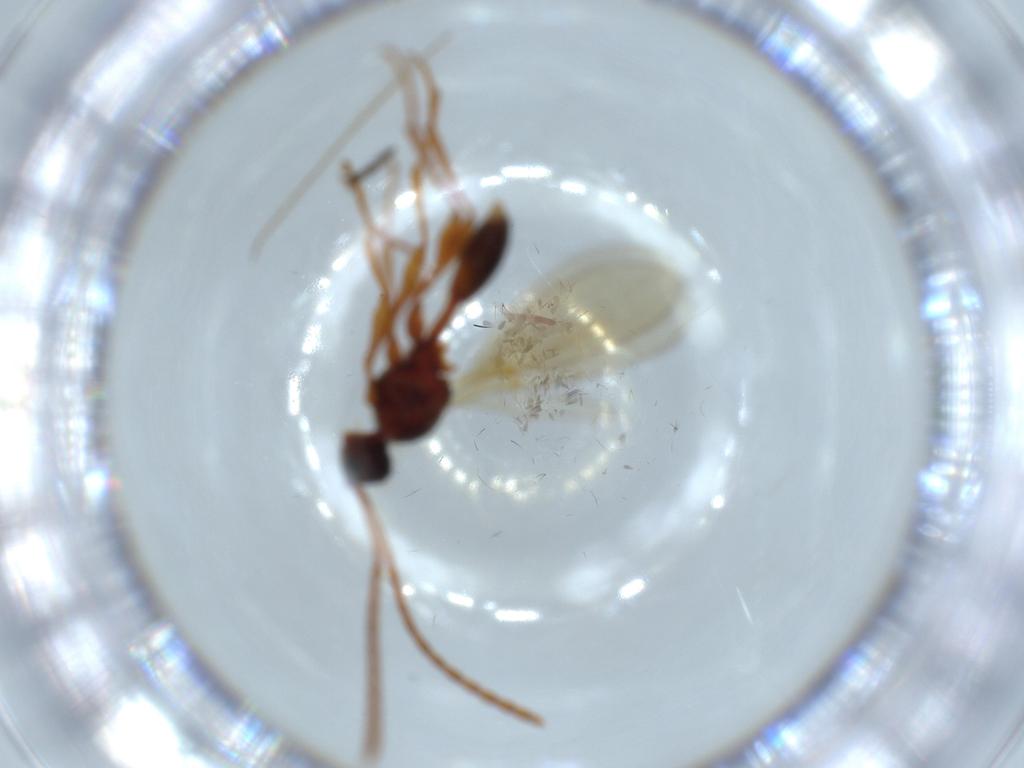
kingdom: Animalia
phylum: Arthropoda
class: Insecta
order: Hymenoptera
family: Diapriidae
